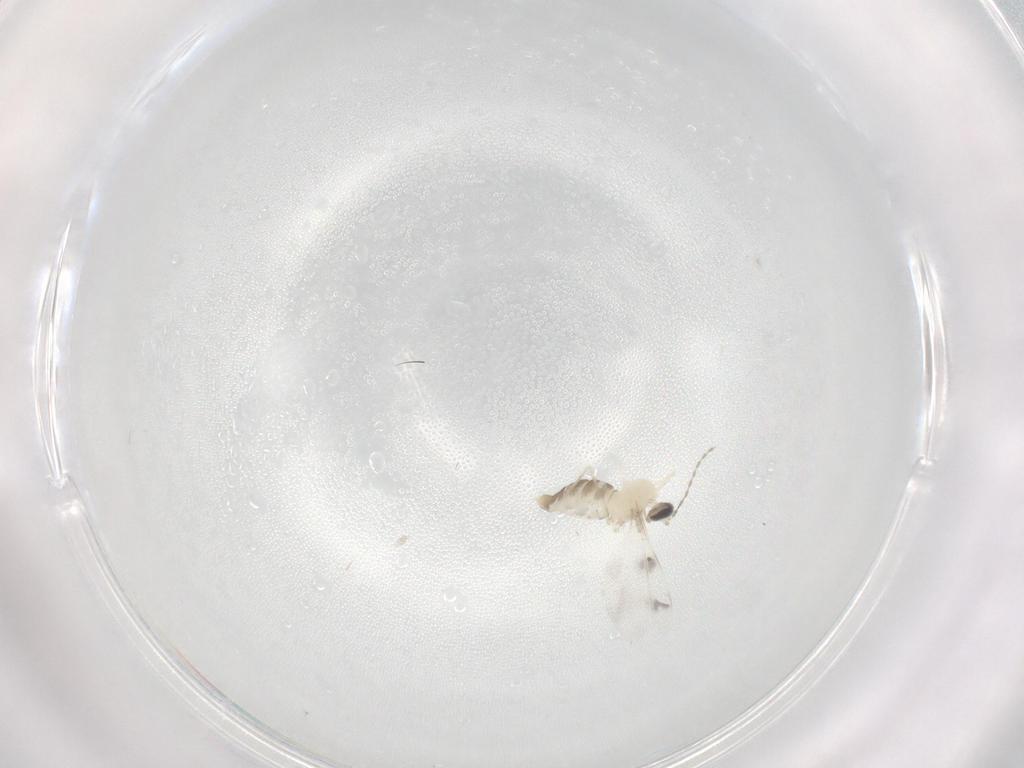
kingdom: Animalia
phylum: Arthropoda
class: Insecta
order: Diptera
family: Cecidomyiidae
